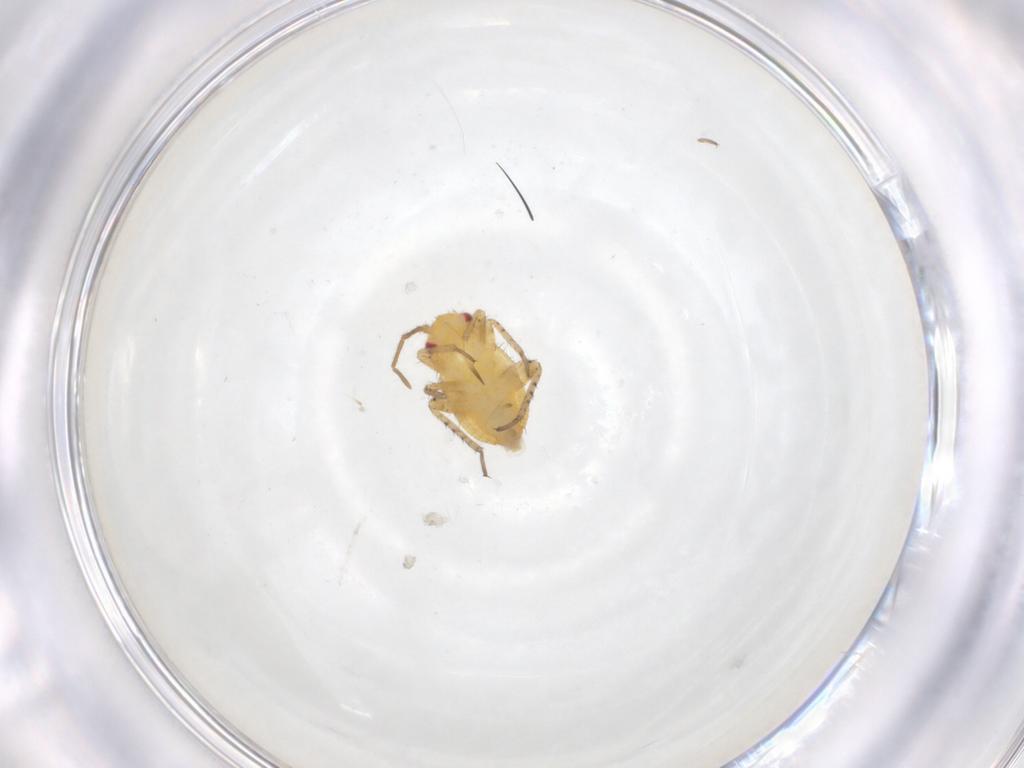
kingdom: Animalia
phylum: Arthropoda
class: Insecta
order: Hemiptera
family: Miridae
